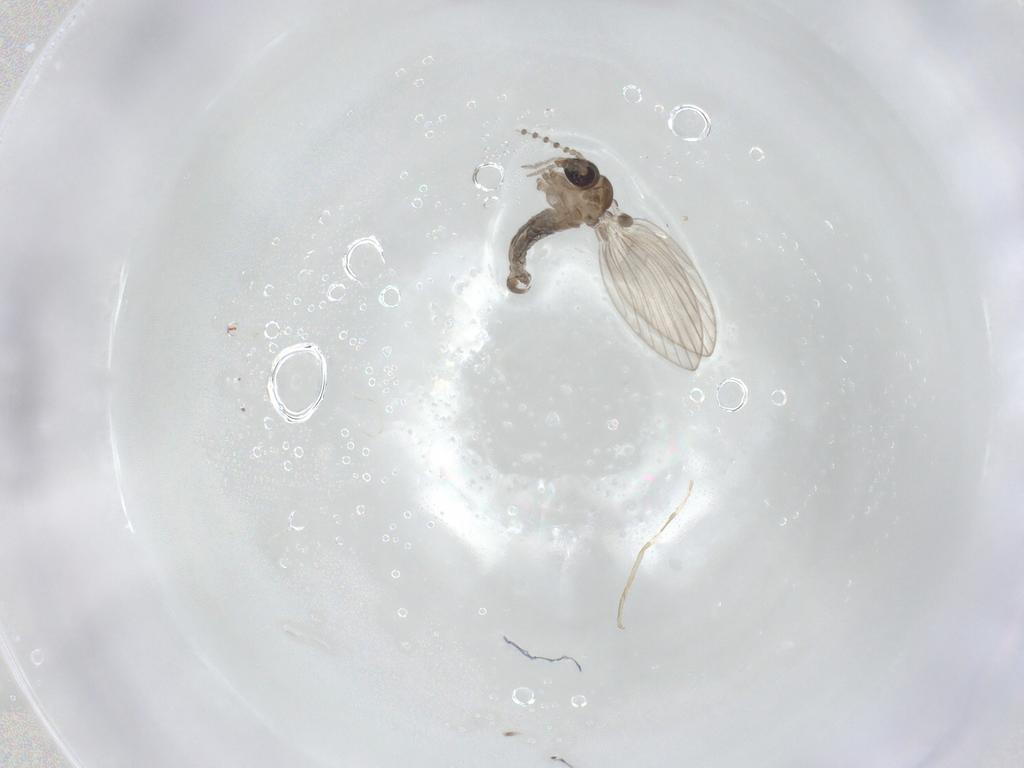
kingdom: Animalia
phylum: Arthropoda
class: Insecta
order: Diptera
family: Psychodidae
